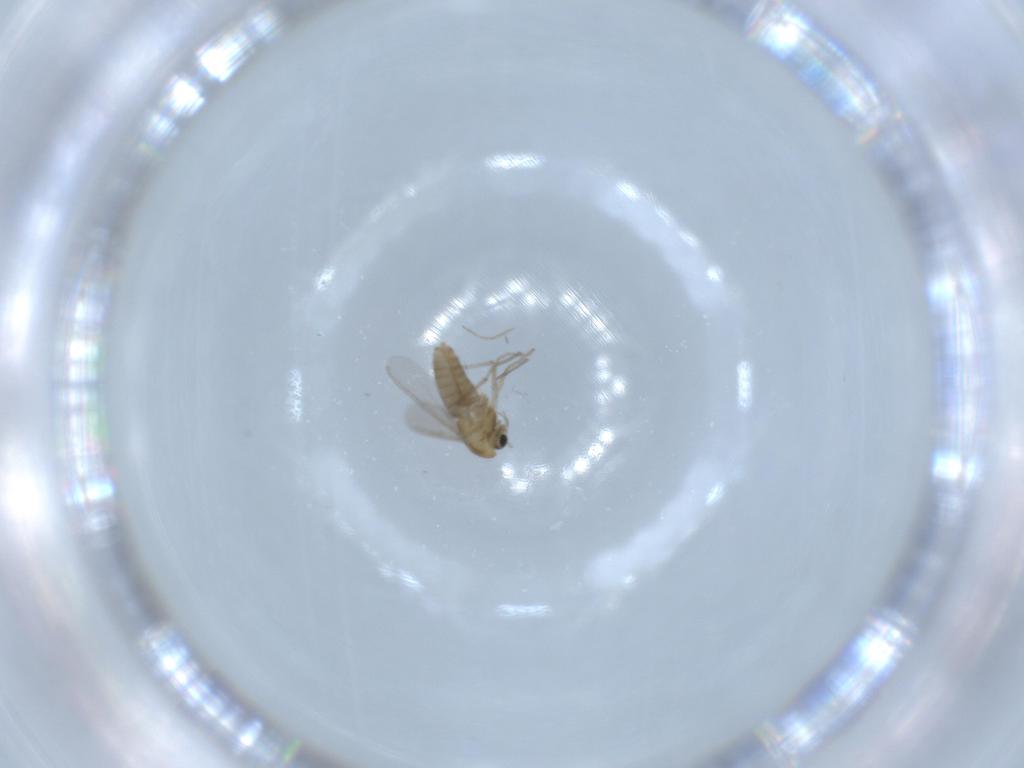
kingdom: Animalia
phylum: Arthropoda
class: Insecta
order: Diptera
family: Chironomidae
